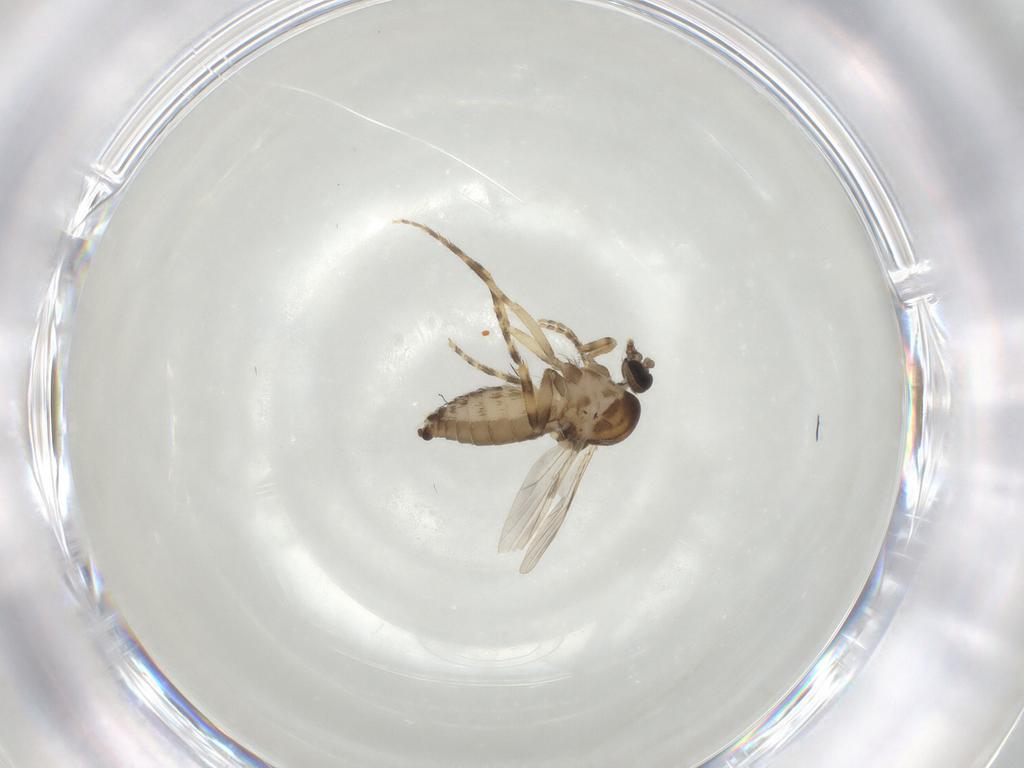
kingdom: Animalia
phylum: Arthropoda
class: Insecta
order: Diptera
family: Ceratopogonidae
